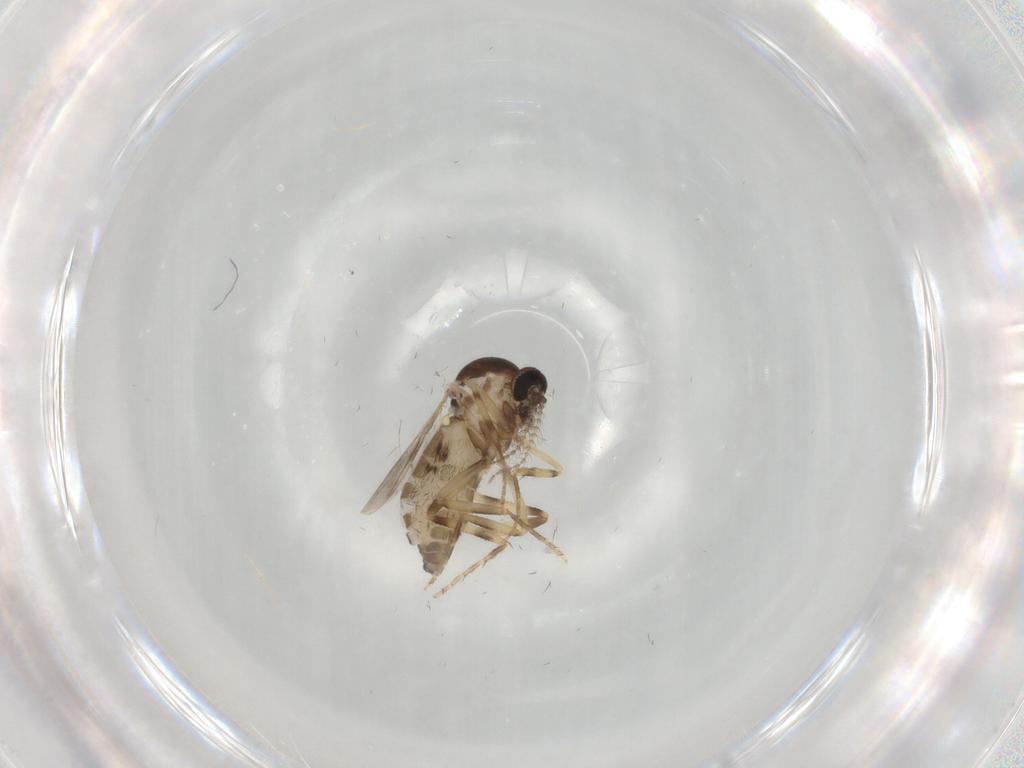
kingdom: Animalia
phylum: Arthropoda
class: Insecta
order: Diptera
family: Ceratopogonidae
